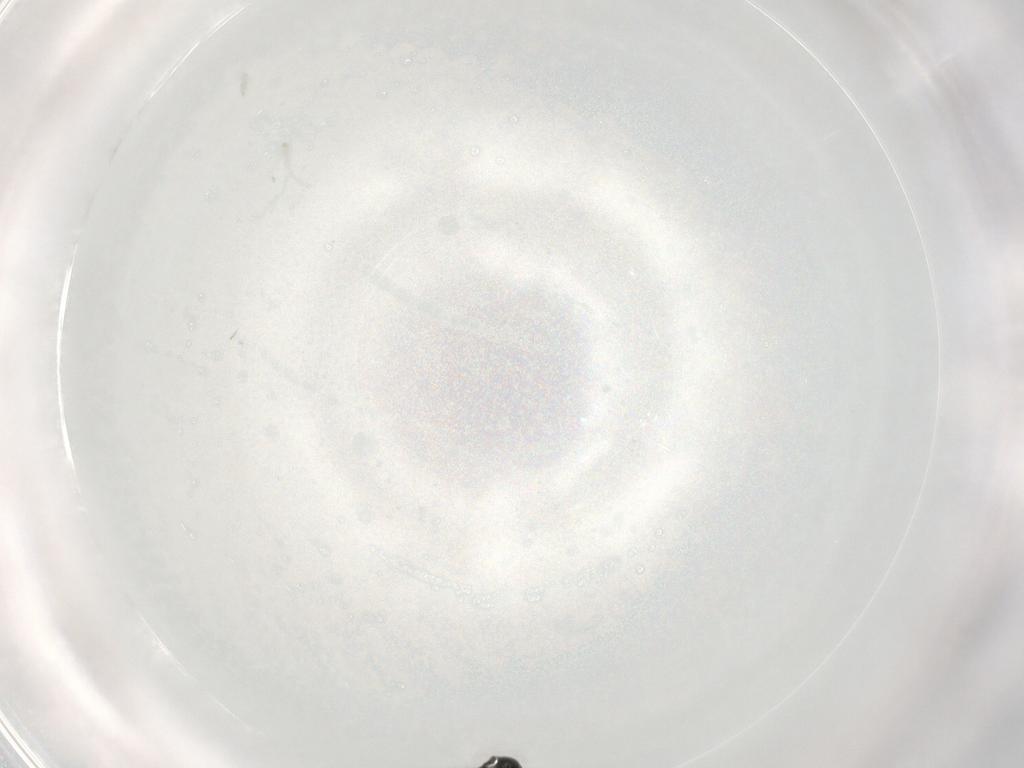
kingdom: Animalia
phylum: Arthropoda
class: Insecta
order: Hymenoptera
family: Platygastridae
